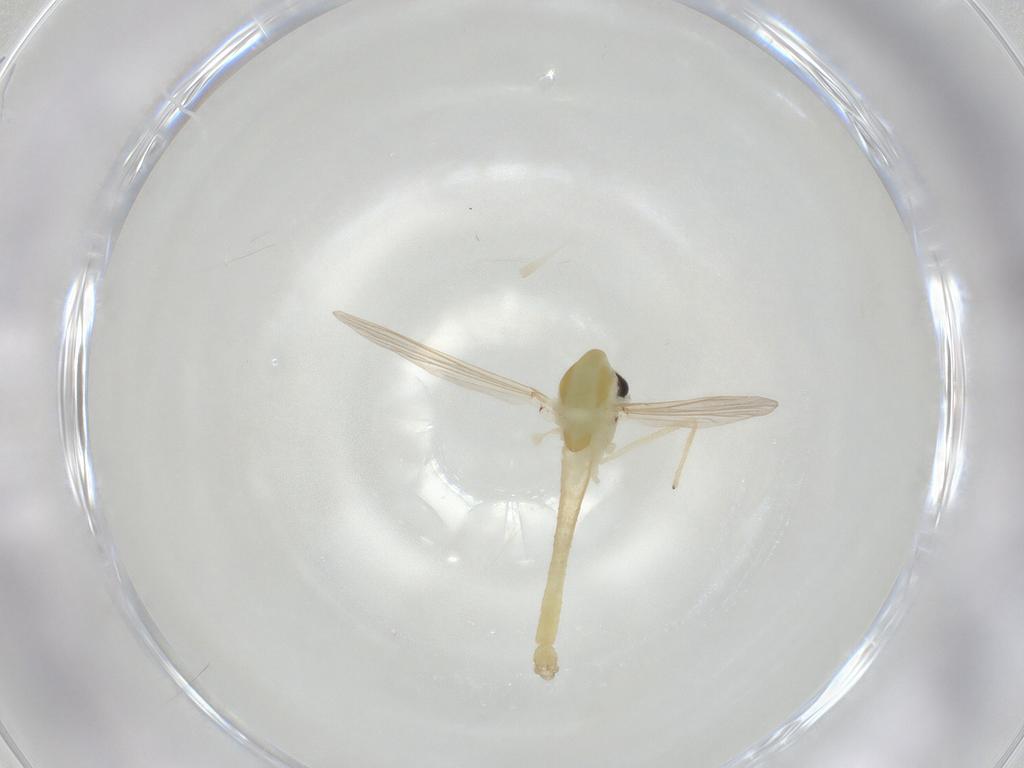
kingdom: Animalia
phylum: Arthropoda
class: Insecta
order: Diptera
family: Chironomidae
